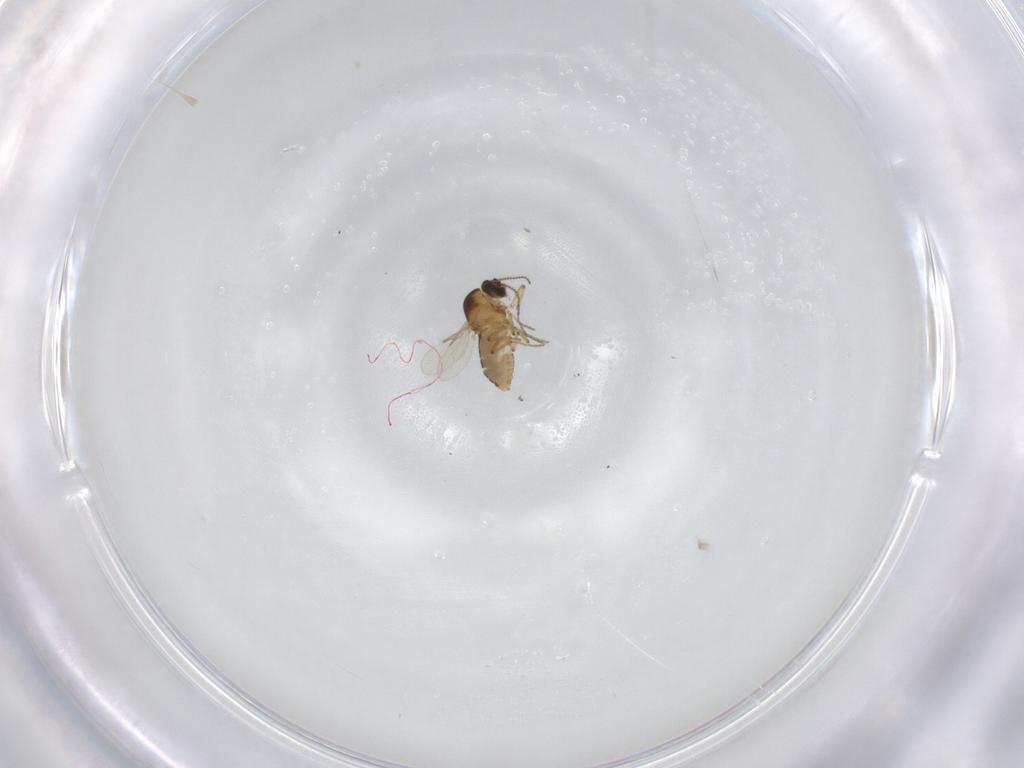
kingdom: Animalia
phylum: Arthropoda
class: Insecta
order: Diptera
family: Ceratopogonidae
